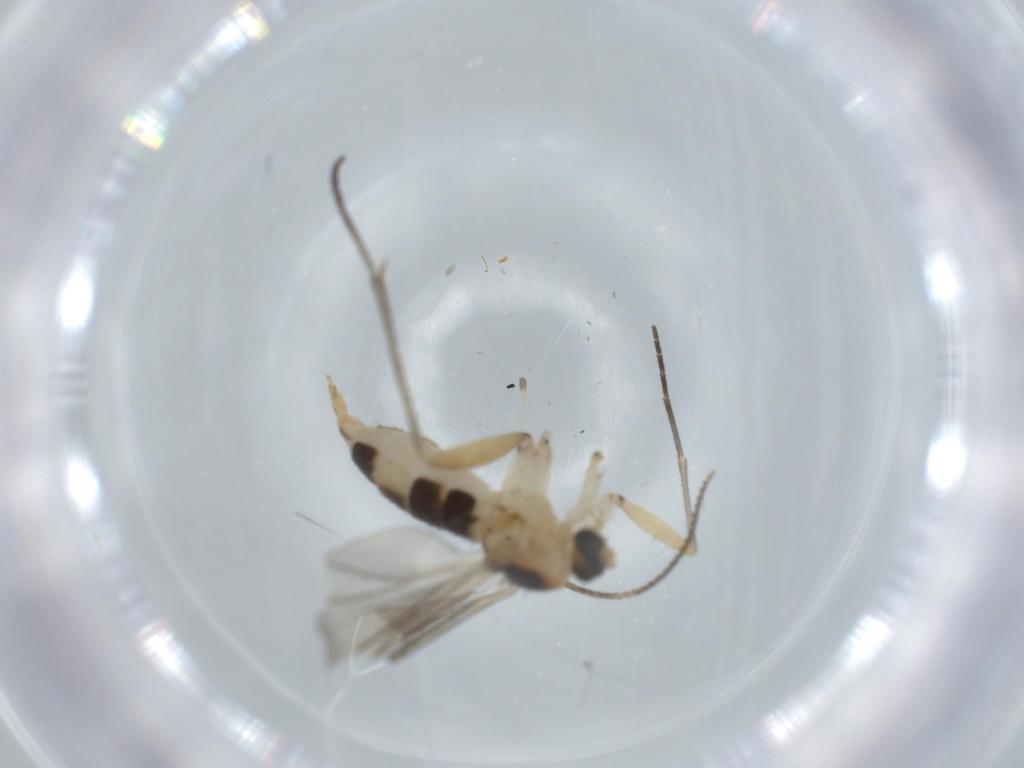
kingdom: Animalia
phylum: Arthropoda
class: Insecta
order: Diptera
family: Sciaridae
